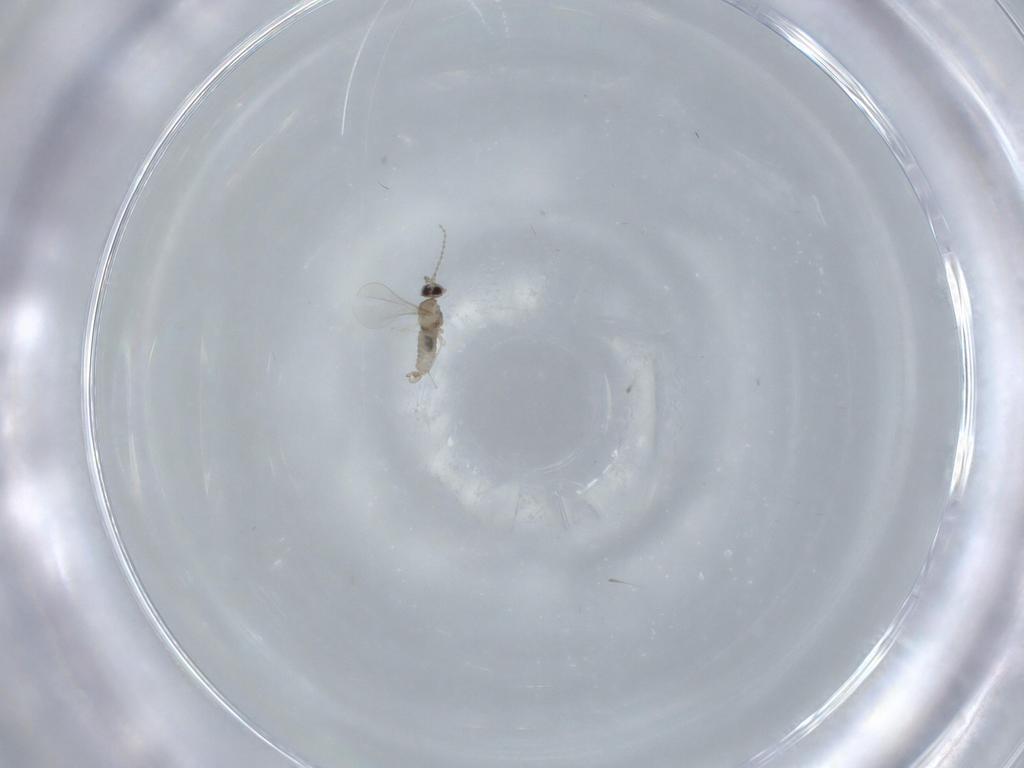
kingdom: Animalia
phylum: Arthropoda
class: Insecta
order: Diptera
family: Cecidomyiidae
